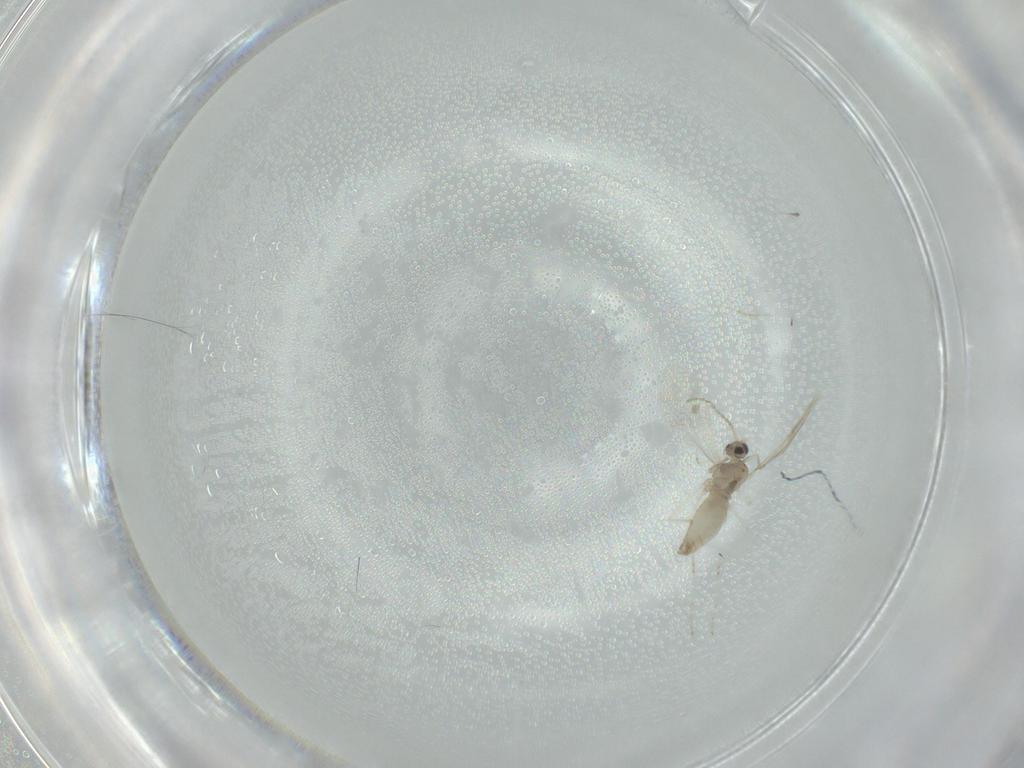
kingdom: Animalia
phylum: Arthropoda
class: Insecta
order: Diptera
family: Cecidomyiidae
